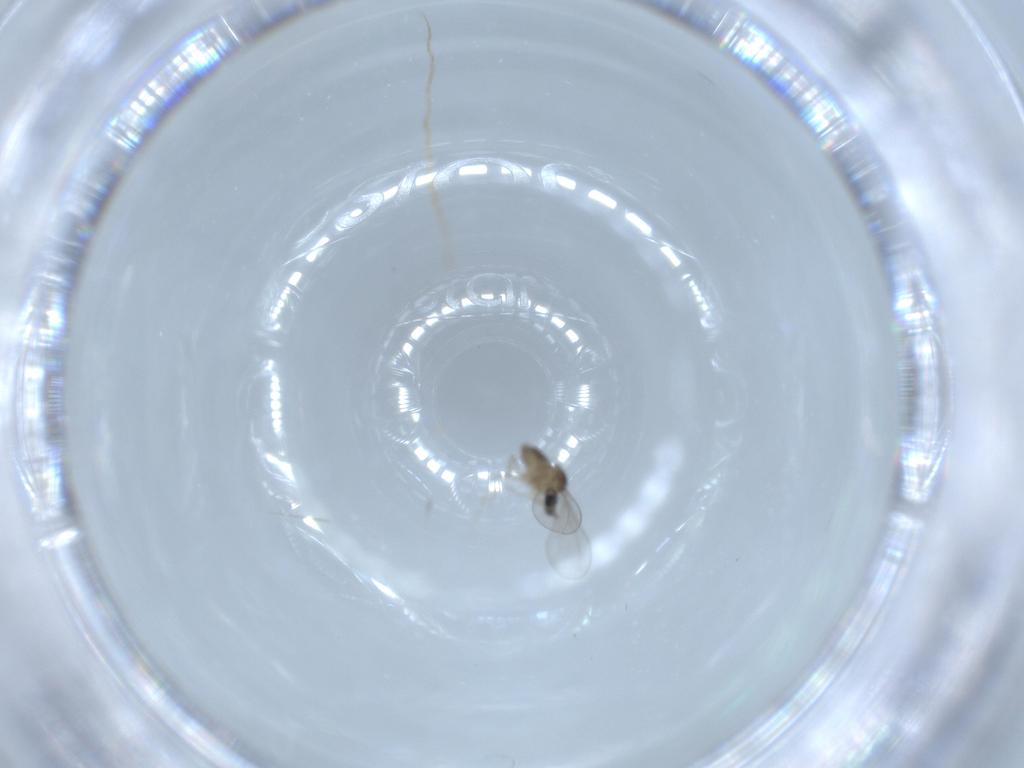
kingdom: Animalia
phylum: Arthropoda
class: Insecta
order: Diptera
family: Cecidomyiidae
